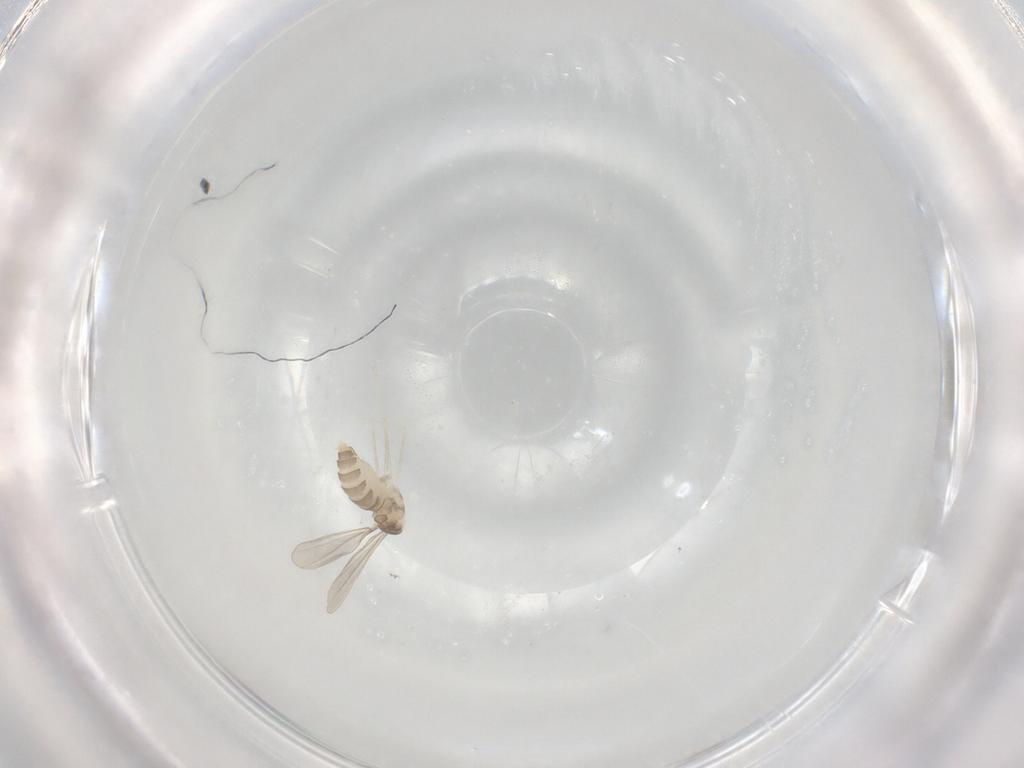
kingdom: Animalia
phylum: Arthropoda
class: Insecta
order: Diptera
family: Cecidomyiidae
